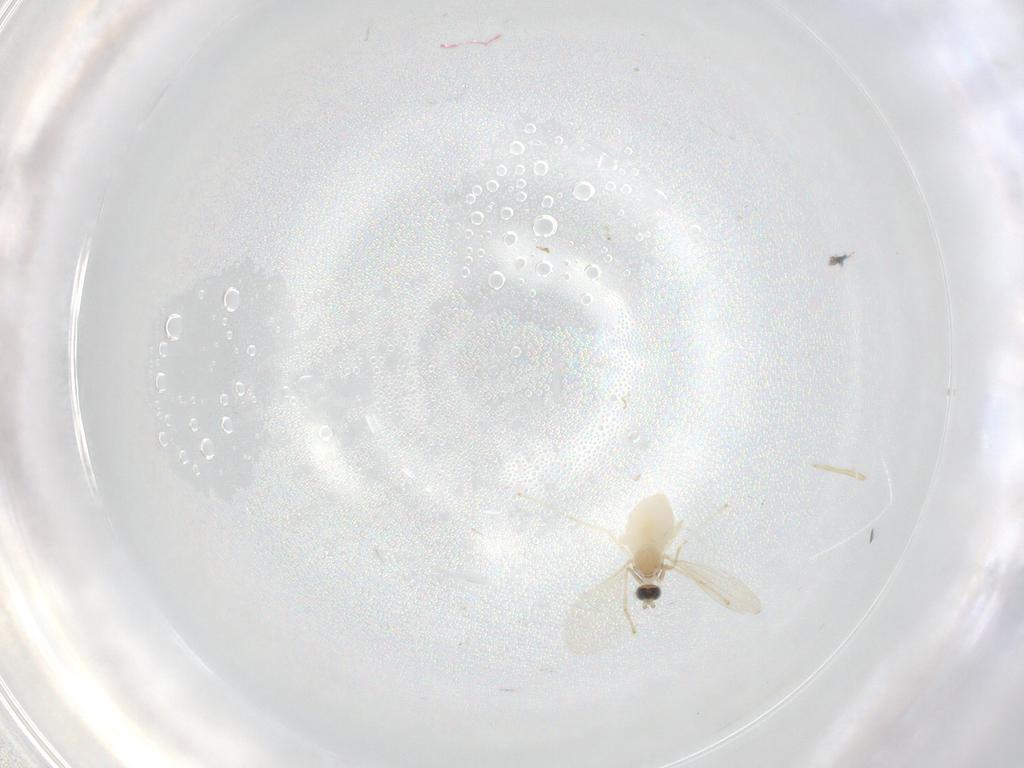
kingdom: Animalia
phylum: Arthropoda
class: Insecta
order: Diptera
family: Cecidomyiidae
